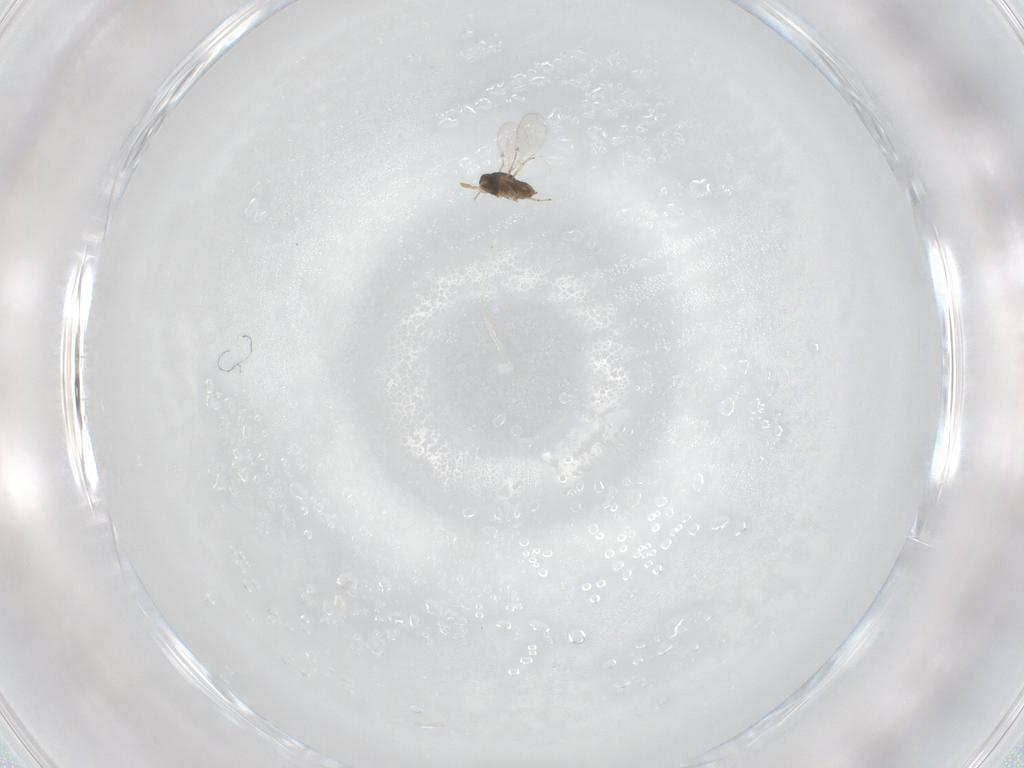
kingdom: Animalia
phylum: Arthropoda
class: Insecta
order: Hymenoptera
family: Encyrtidae
